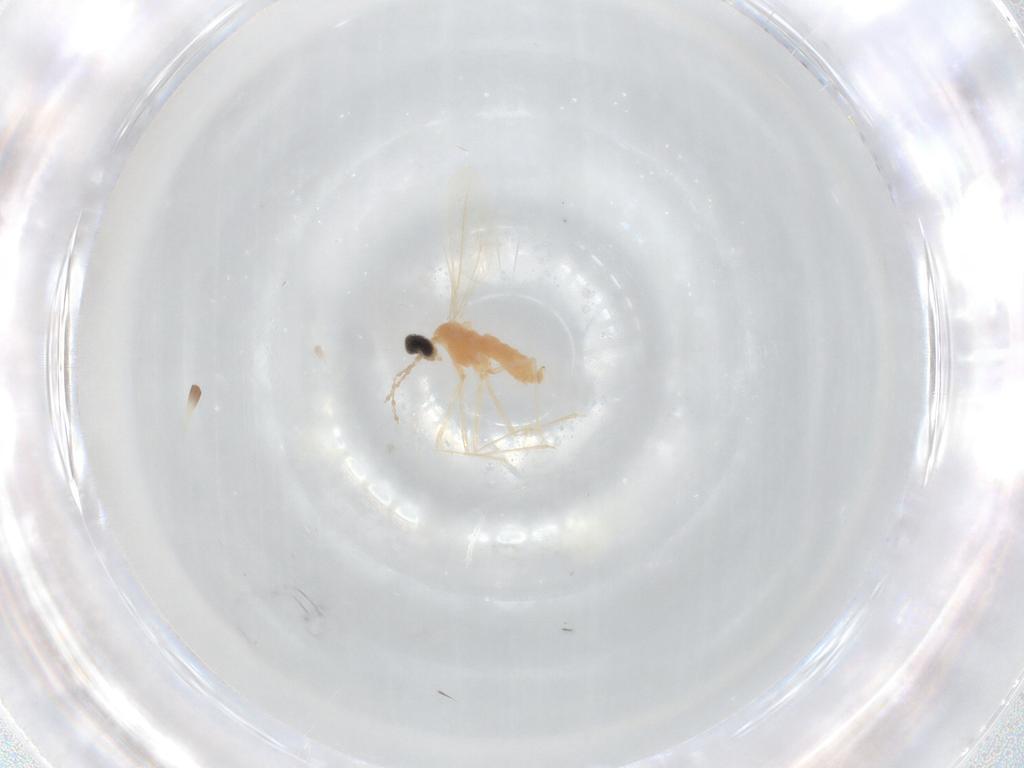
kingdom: Animalia
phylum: Arthropoda
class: Insecta
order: Diptera
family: Cecidomyiidae
